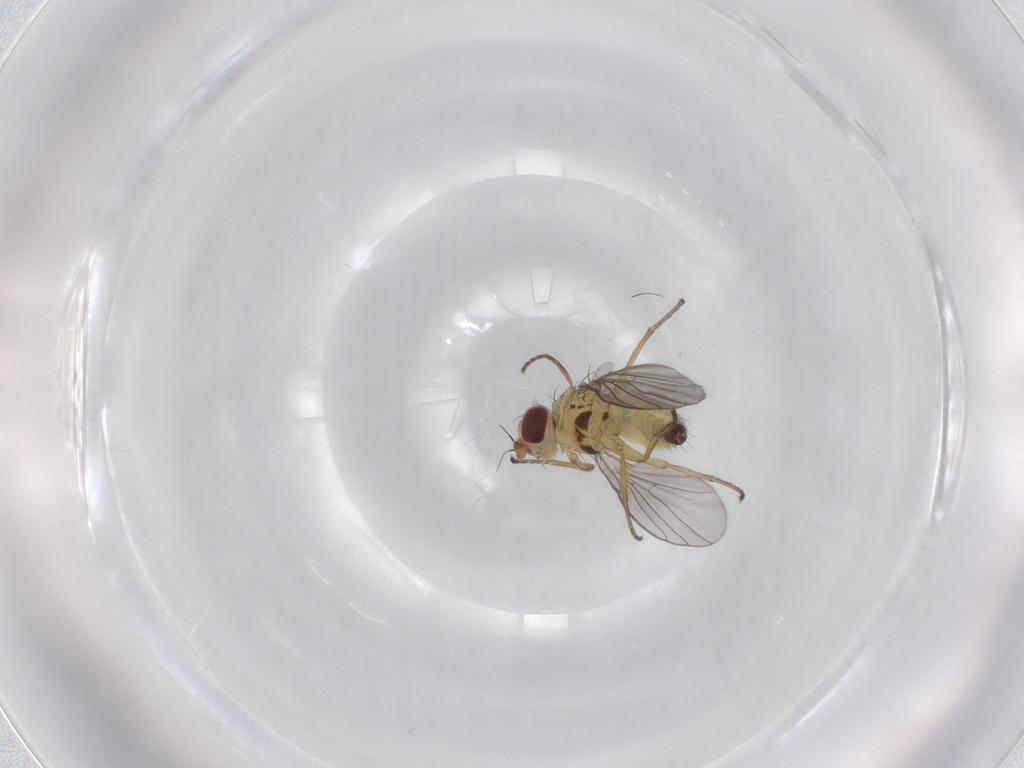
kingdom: Animalia
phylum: Arthropoda
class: Insecta
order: Diptera
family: Agromyzidae
